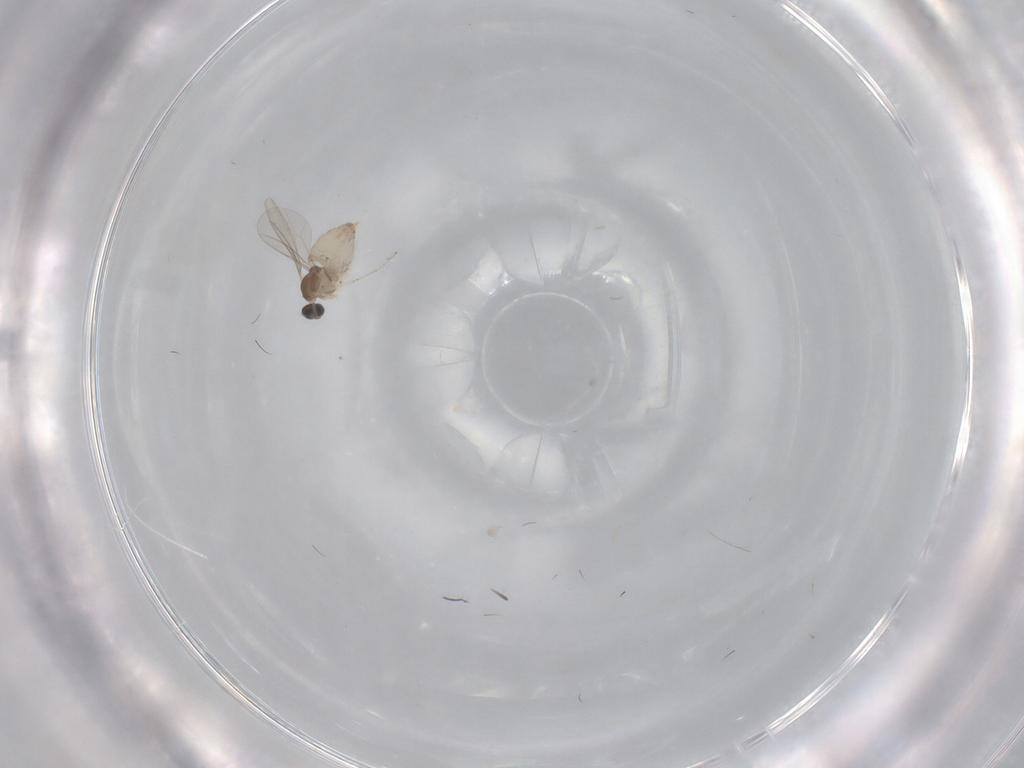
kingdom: Animalia
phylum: Arthropoda
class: Insecta
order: Diptera
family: Cecidomyiidae
